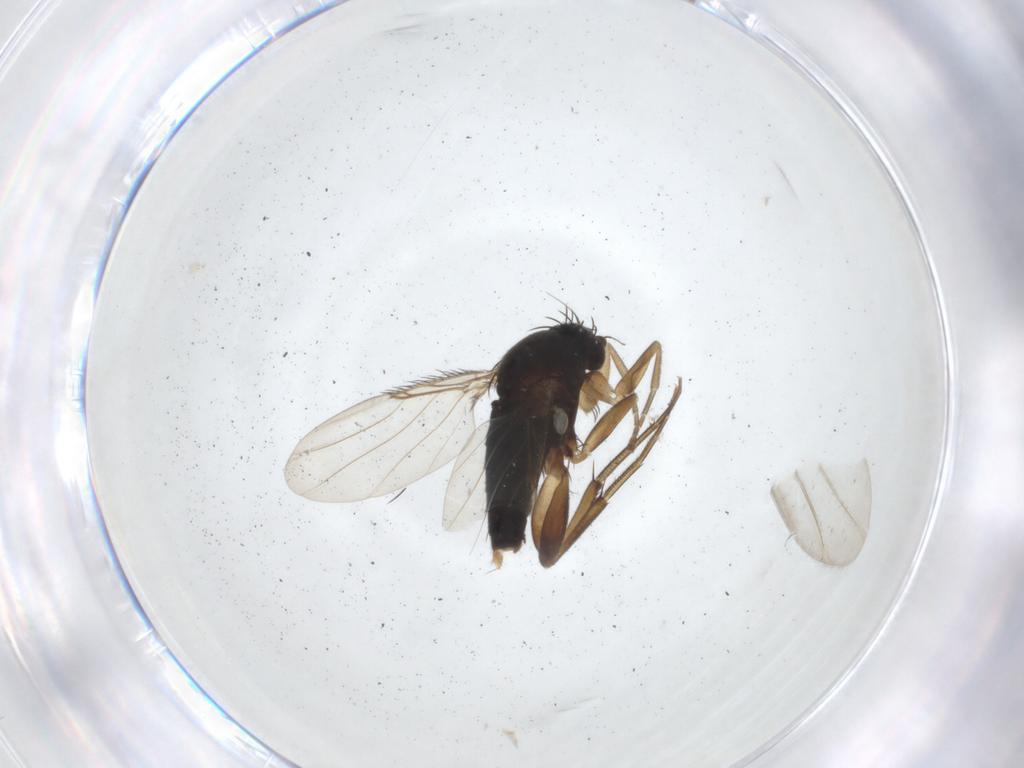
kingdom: Animalia
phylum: Arthropoda
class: Insecta
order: Diptera
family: Phoridae
